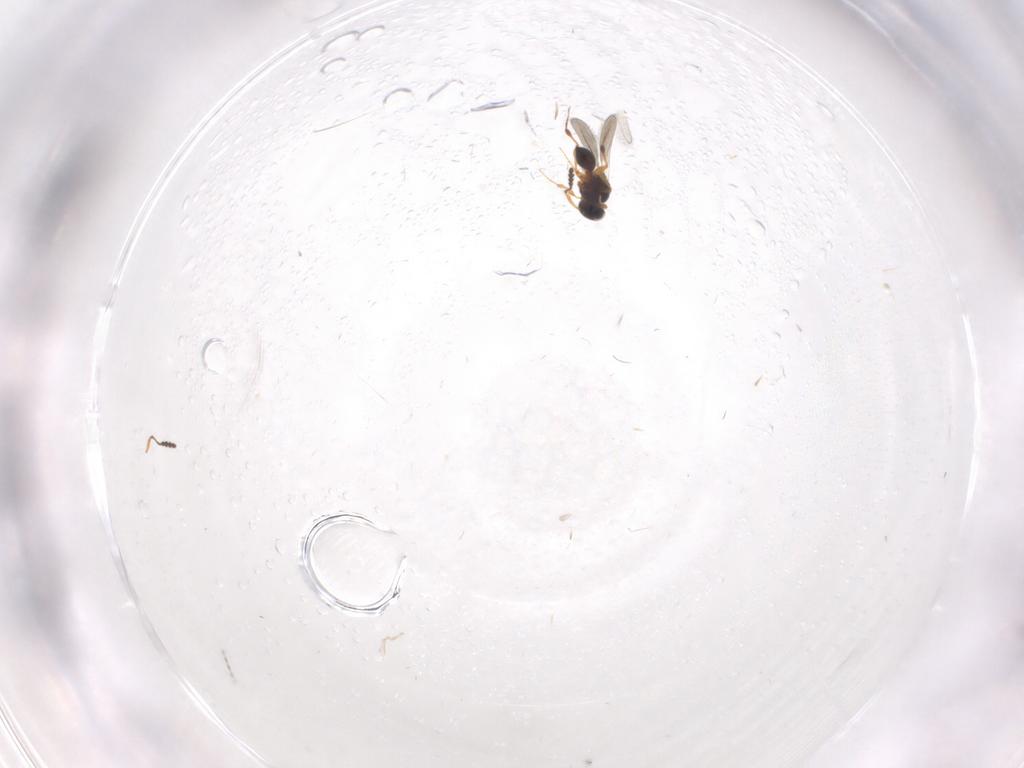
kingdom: Animalia
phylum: Arthropoda
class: Insecta
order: Hymenoptera
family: Platygastridae
